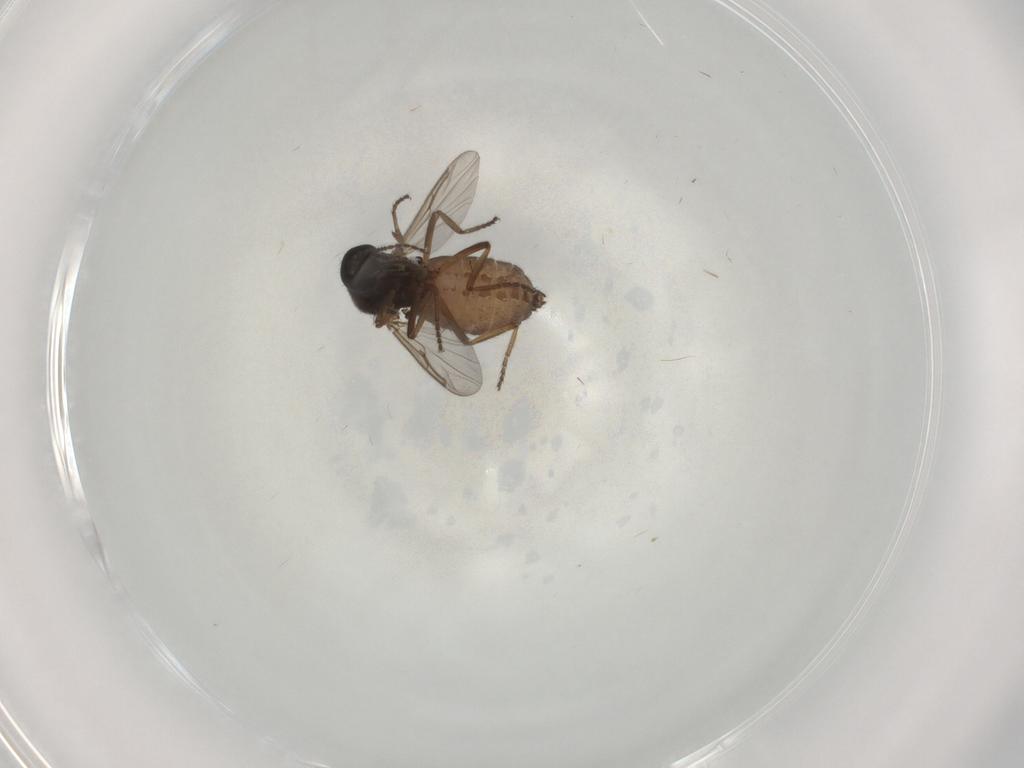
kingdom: Animalia
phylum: Arthropoda
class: Insecta
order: Diptera
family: Ceratopogonidae
